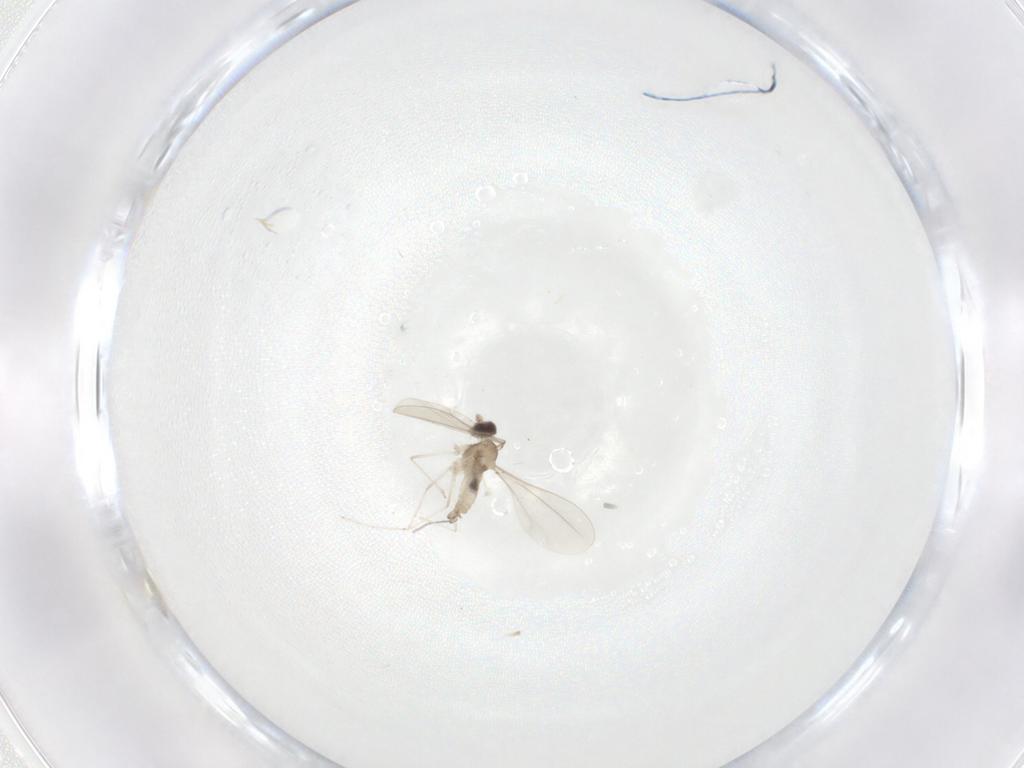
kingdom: Animalia
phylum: Arthropoda
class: Insecta
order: Diptera
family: Cecidomyiidae
